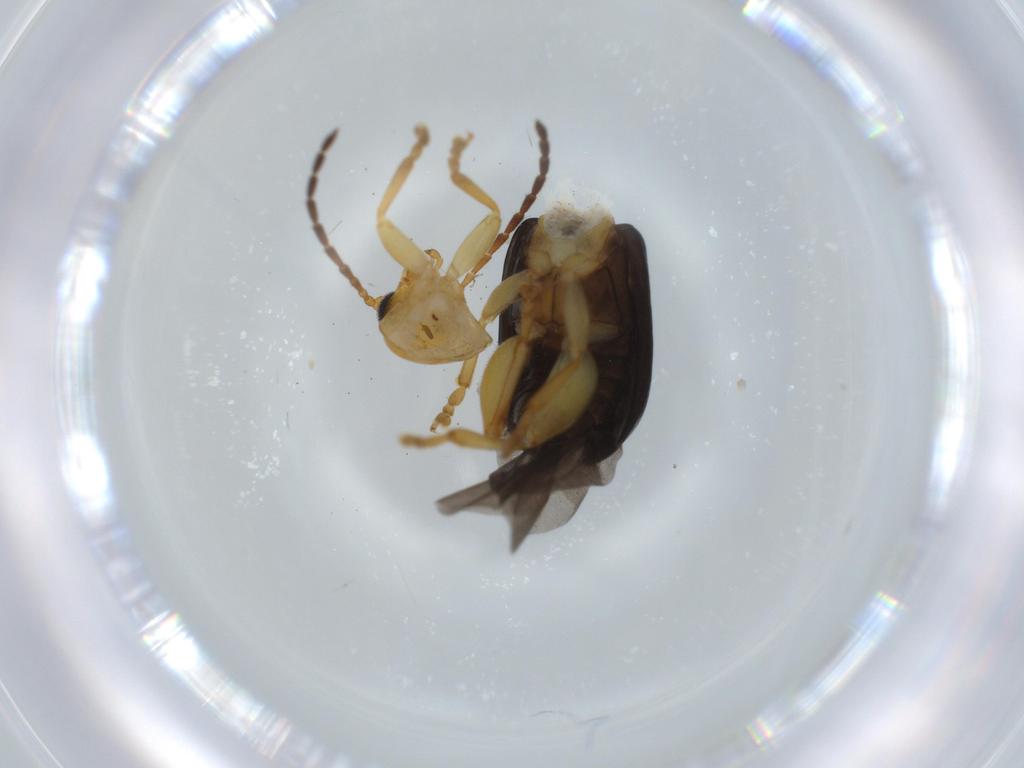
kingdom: Animalia
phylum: Arthropoda
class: Insecta
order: Coleoptera
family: Chrysomelidae
